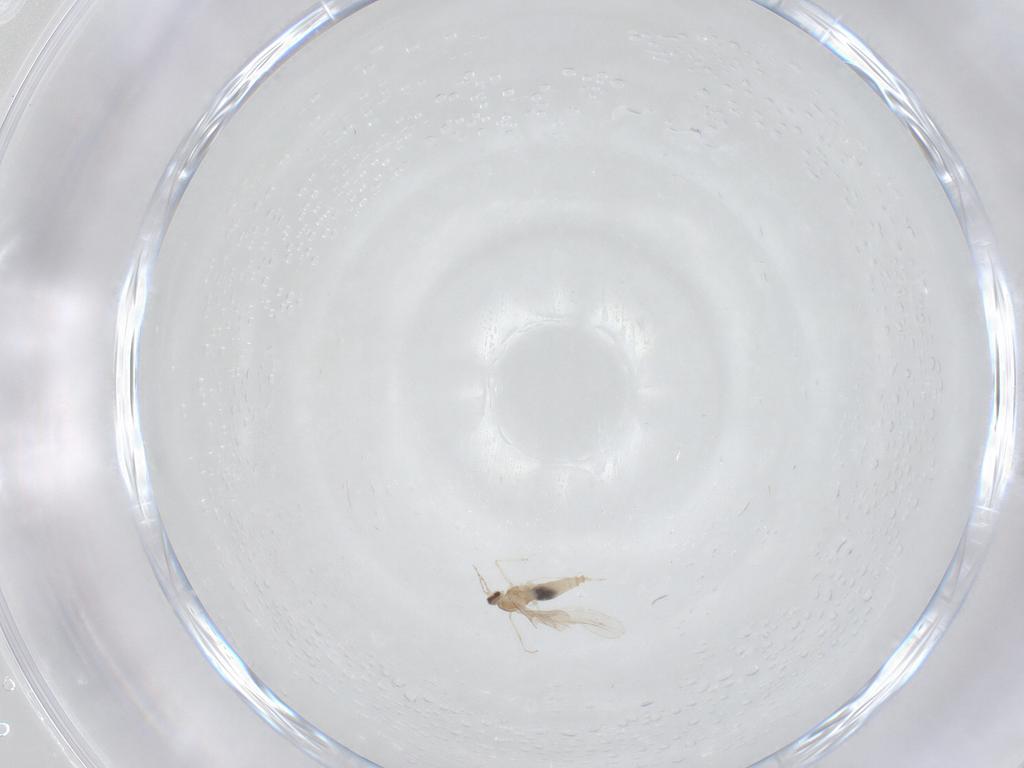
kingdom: Animalia
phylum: Arthropoda
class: Insecta
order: Diptera
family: Cecidomyiidae
